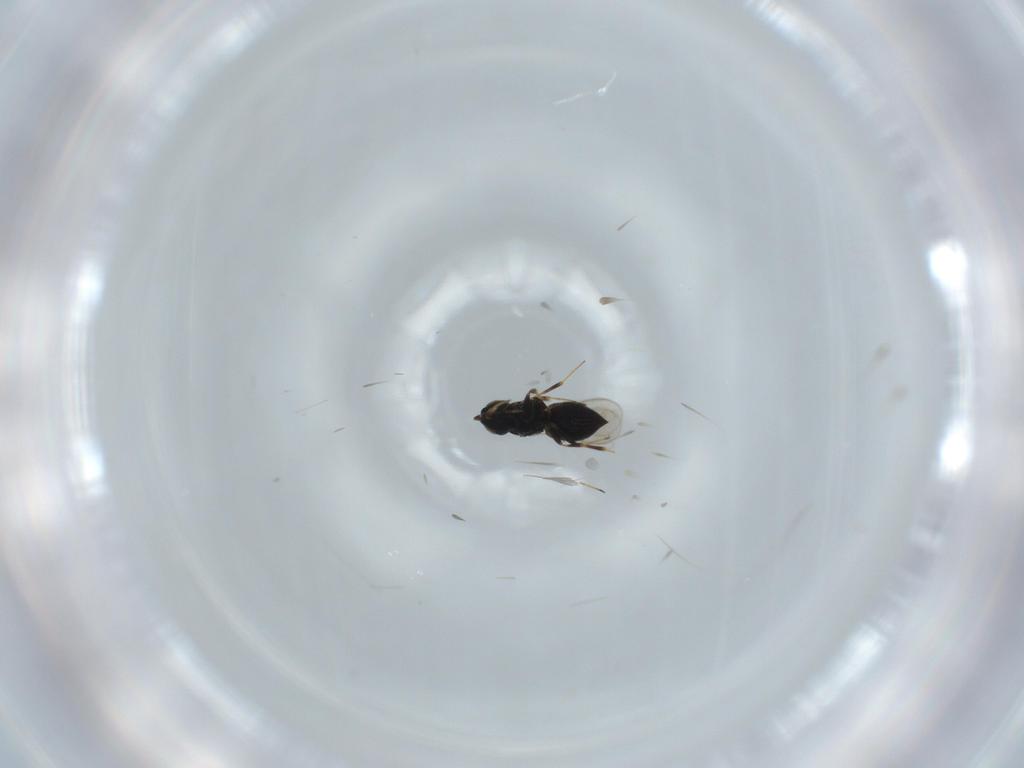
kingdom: Animalia
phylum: Arthropoda
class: Insecta
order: Hymenoptera
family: Scelionidae
